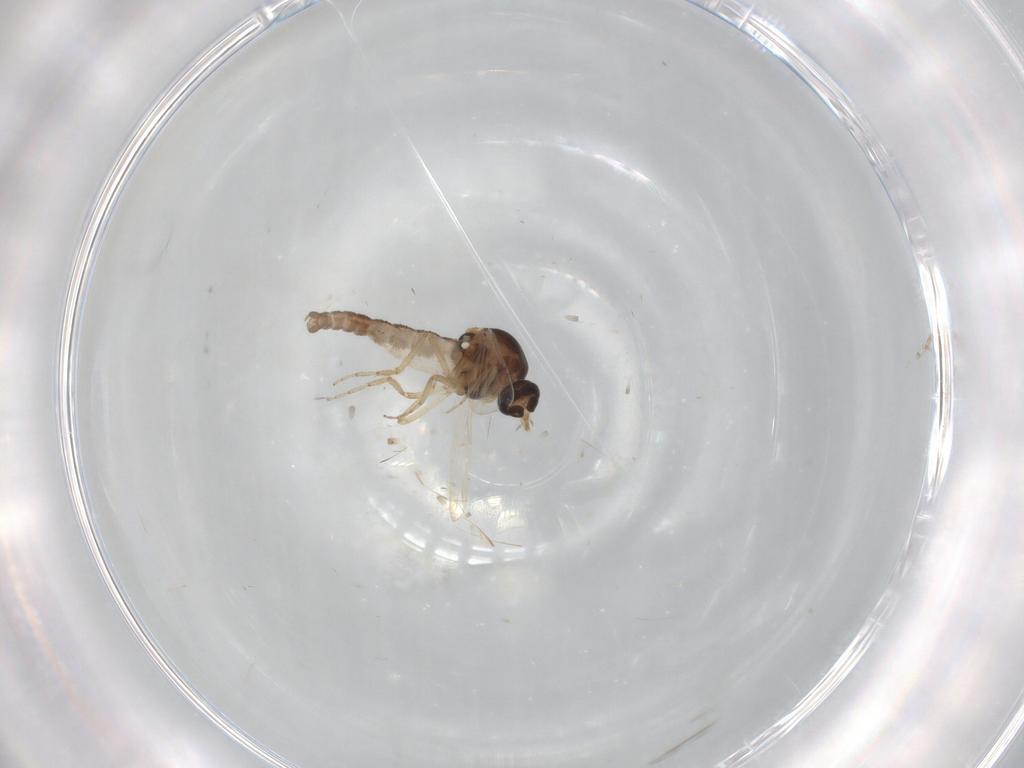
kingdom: Animalia
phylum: Arthropoda
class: Insecta
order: Diptera
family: Ceratopogonidae
